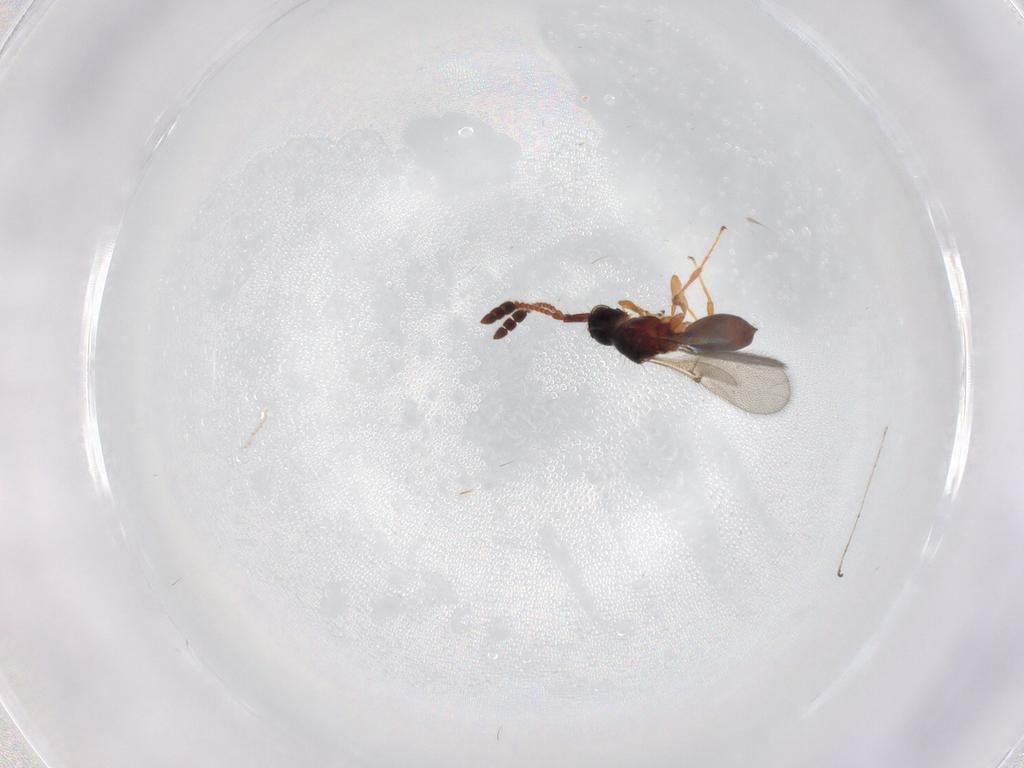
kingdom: Animalia
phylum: Arthropoda
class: Insecta
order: Hymenoptera
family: Diapriidae
